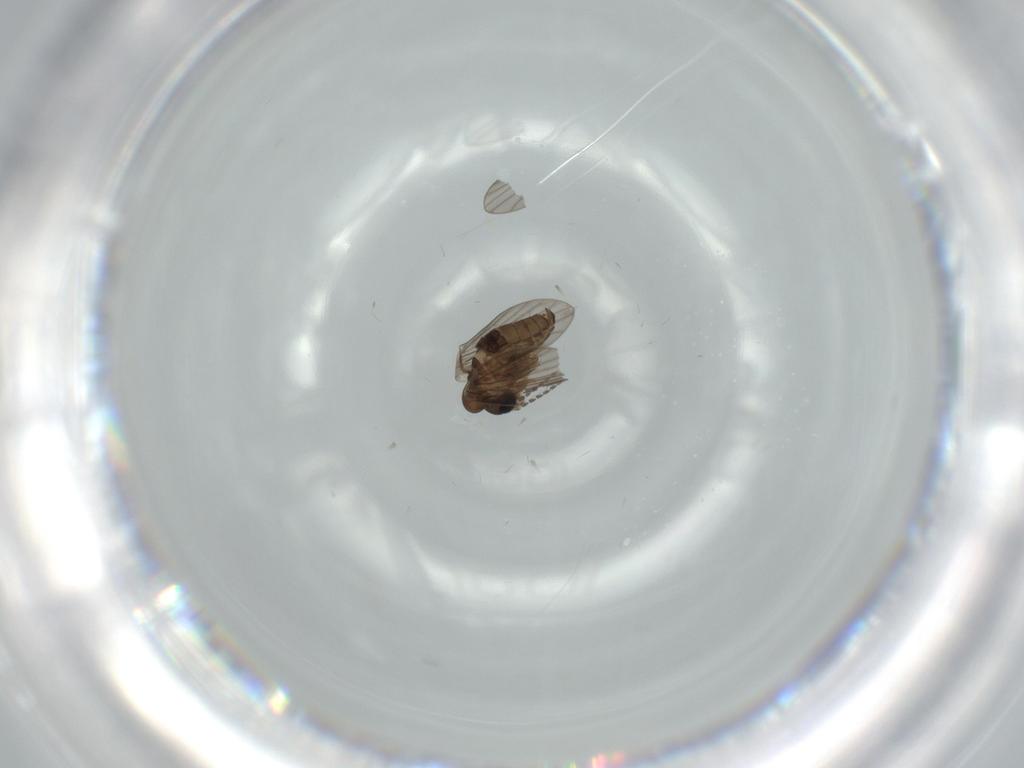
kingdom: Animalia
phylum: Arthropoda
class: Insecta
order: Diptera
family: Psychodidae
